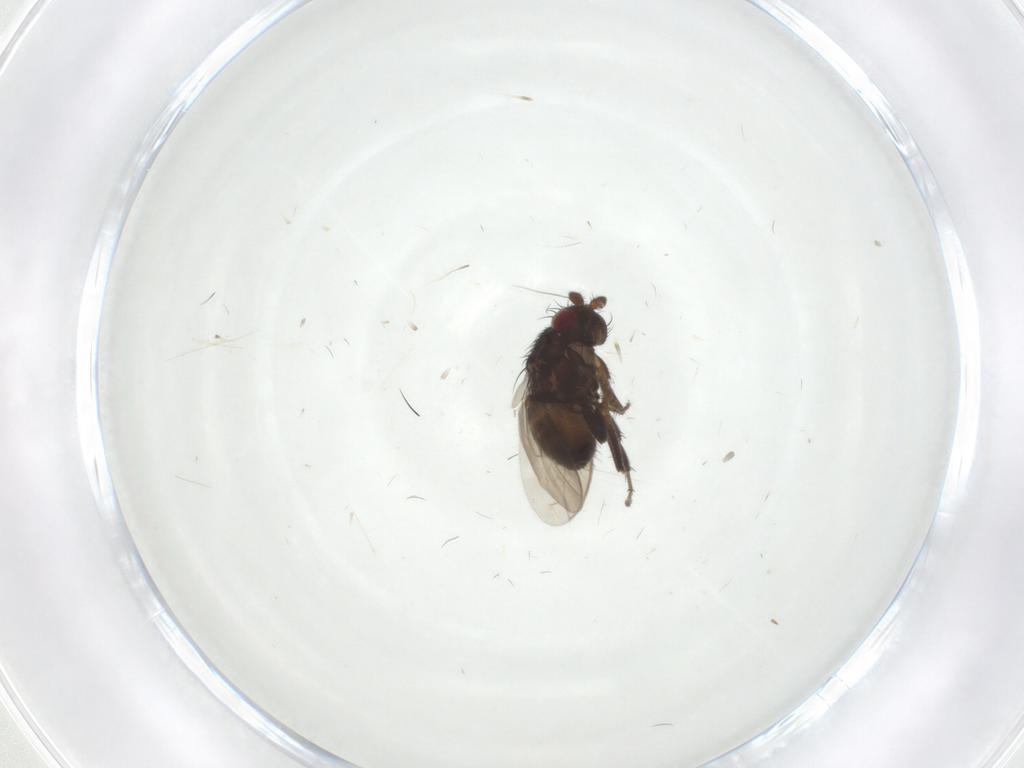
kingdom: Animalia
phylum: Arthropoda
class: Insecta
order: Diptera
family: Sphaeroceridae
